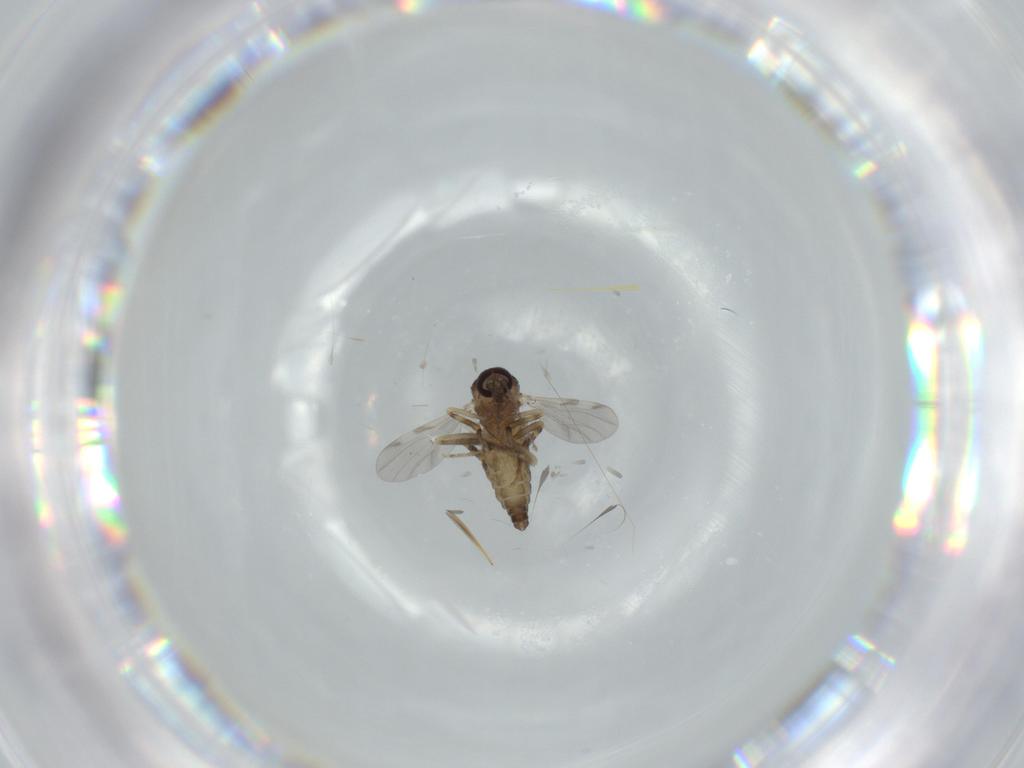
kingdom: Animalia
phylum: Arthropoda
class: Insecta
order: Diptera
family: Ceratopogonidae
